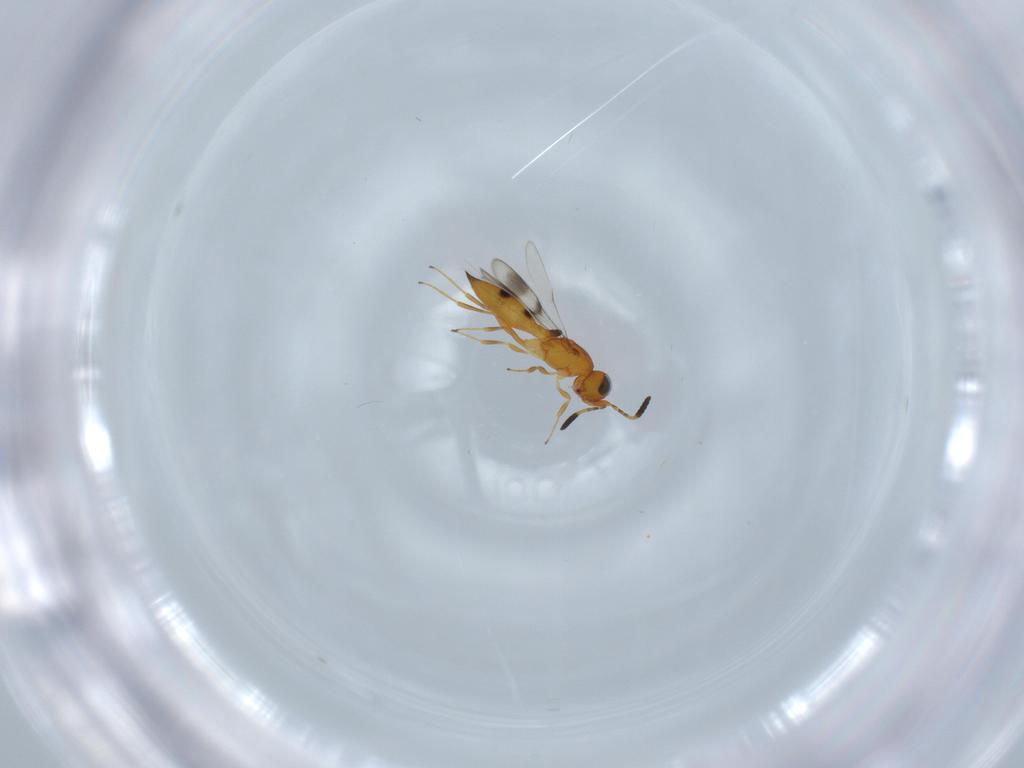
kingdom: Animalia
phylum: Arthropoda
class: Insecta
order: Hymenoptera
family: Scelionidae
